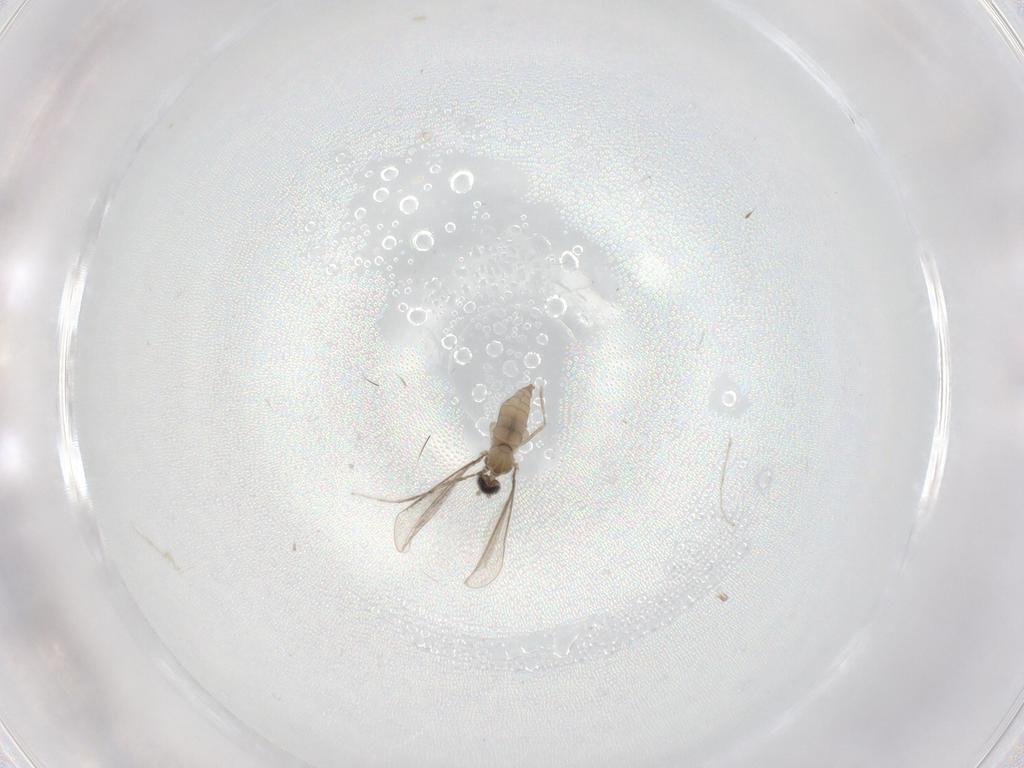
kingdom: Animalia
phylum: Arthropoda
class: Insecta
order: Diptera
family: Cecidomyiidae
